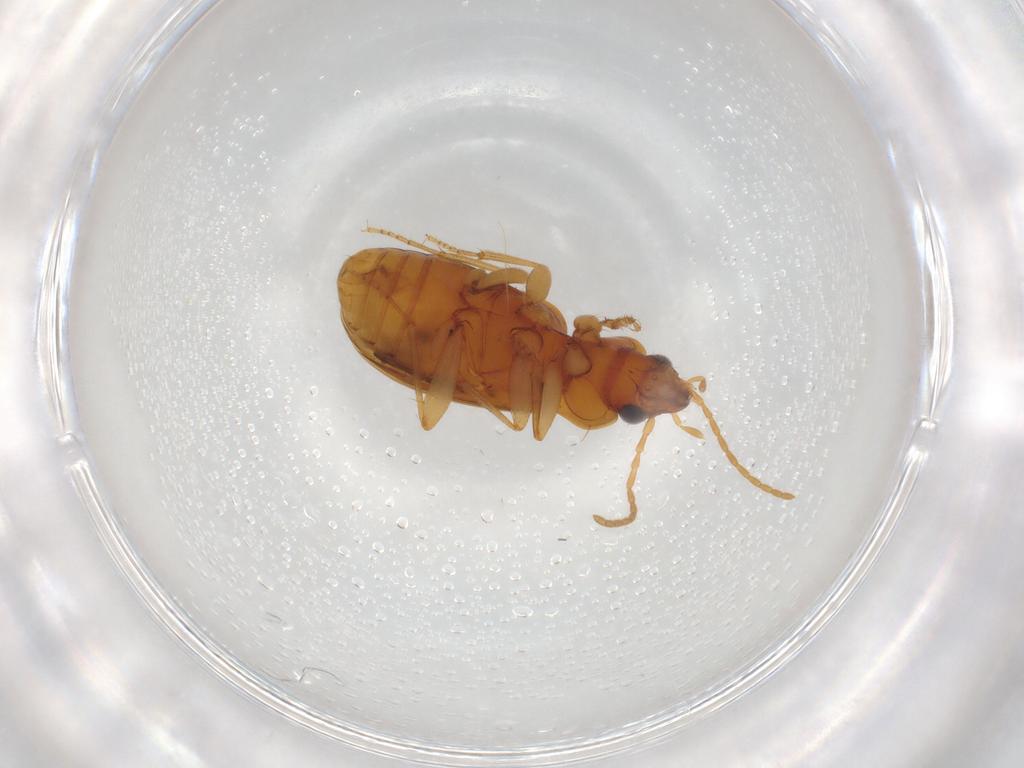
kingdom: Animalia
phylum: Arthropoda
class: Insecta
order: Coleoptera
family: Carabidae
